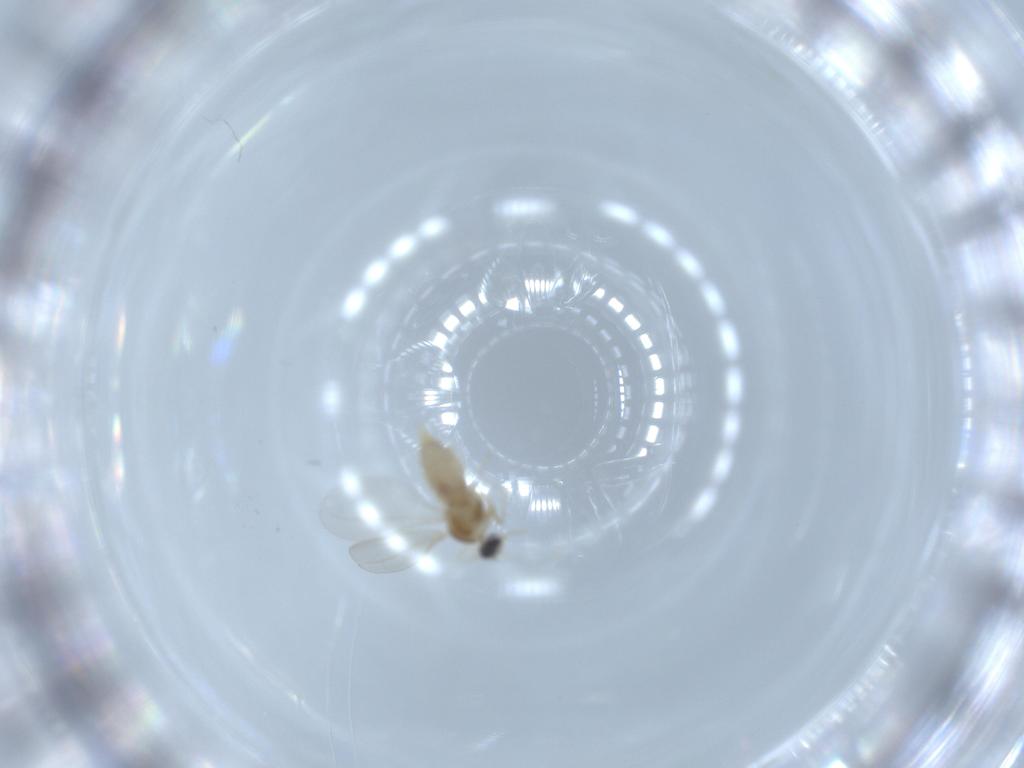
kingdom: Animalia
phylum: Arthropoda
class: Insecta
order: Diptera
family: Cecidomyiidae
